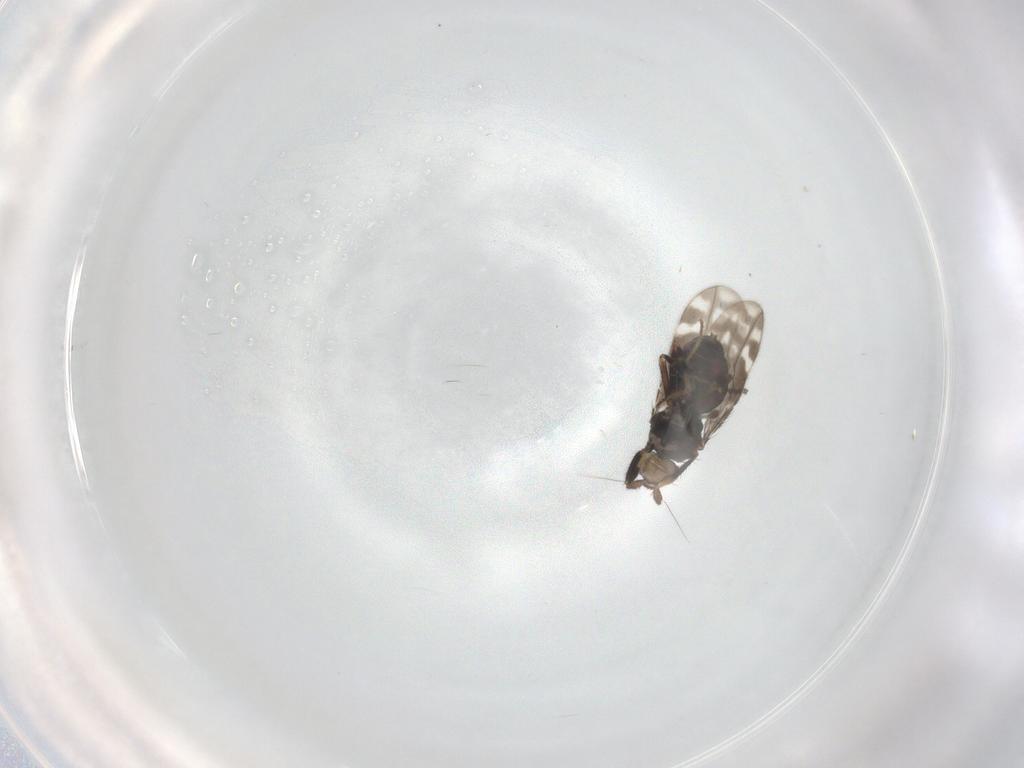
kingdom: Animalia
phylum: Arthropoda
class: Insecta
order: Diptera
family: Sphaeroceridae
